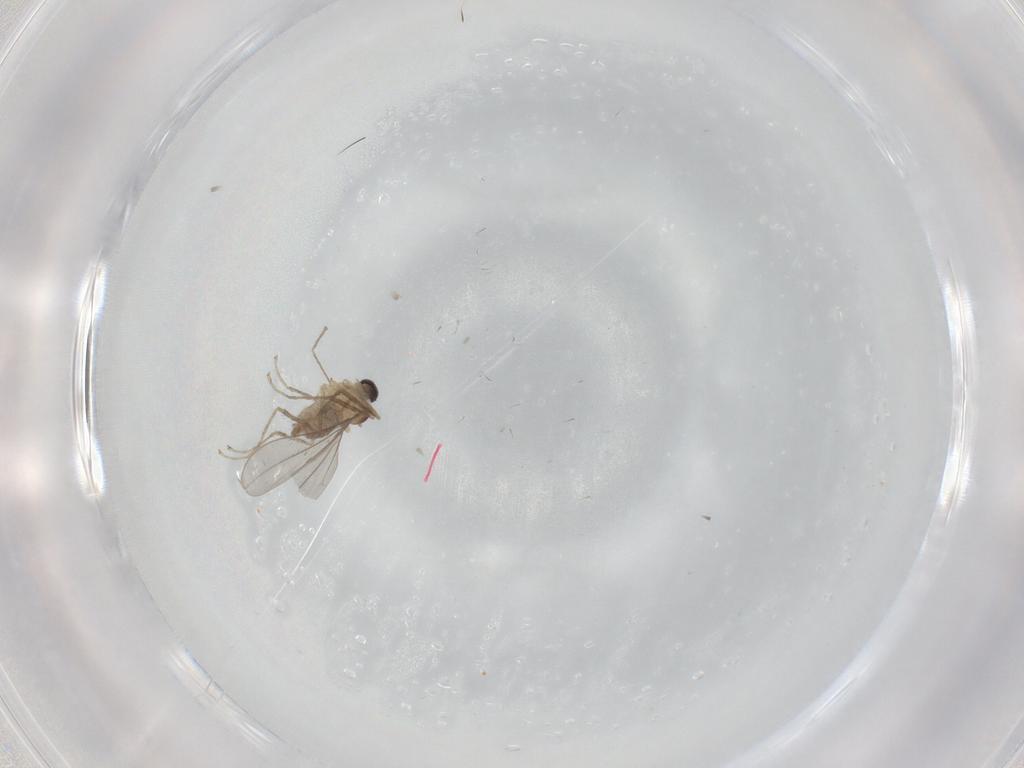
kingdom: Animalia
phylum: Arthropoda
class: Insecta
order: Diptera
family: Cecidomyiidae
